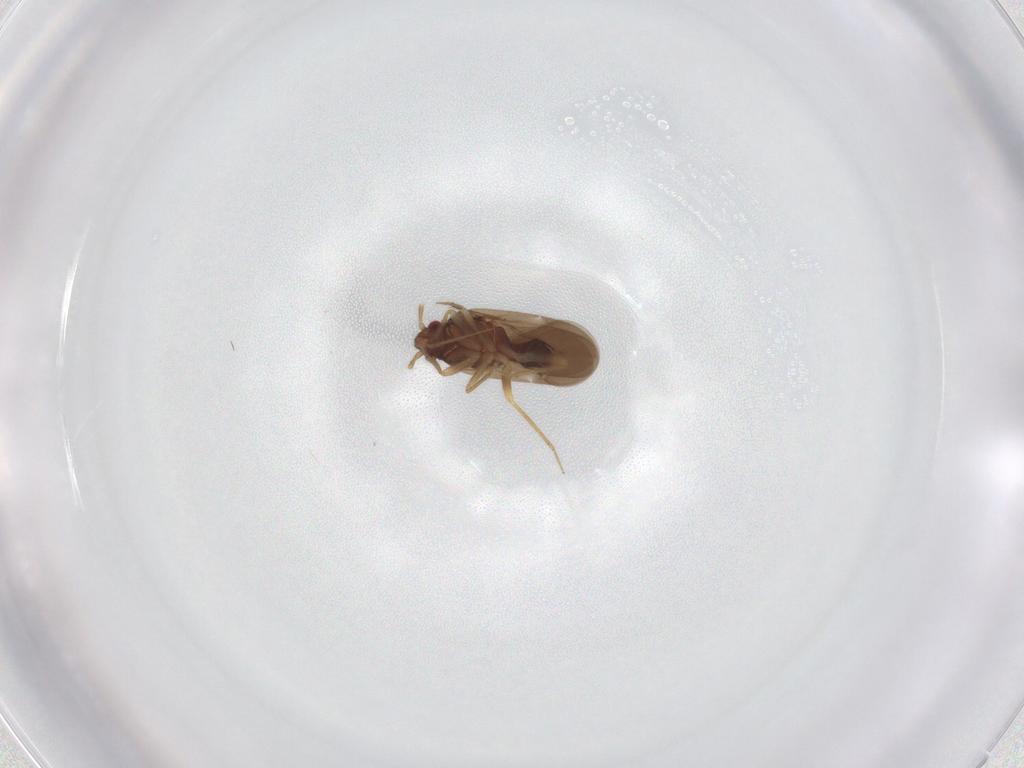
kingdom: Animalia
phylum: Arthropoda
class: Insecta
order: Hemiptera
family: Ceratocombidae
